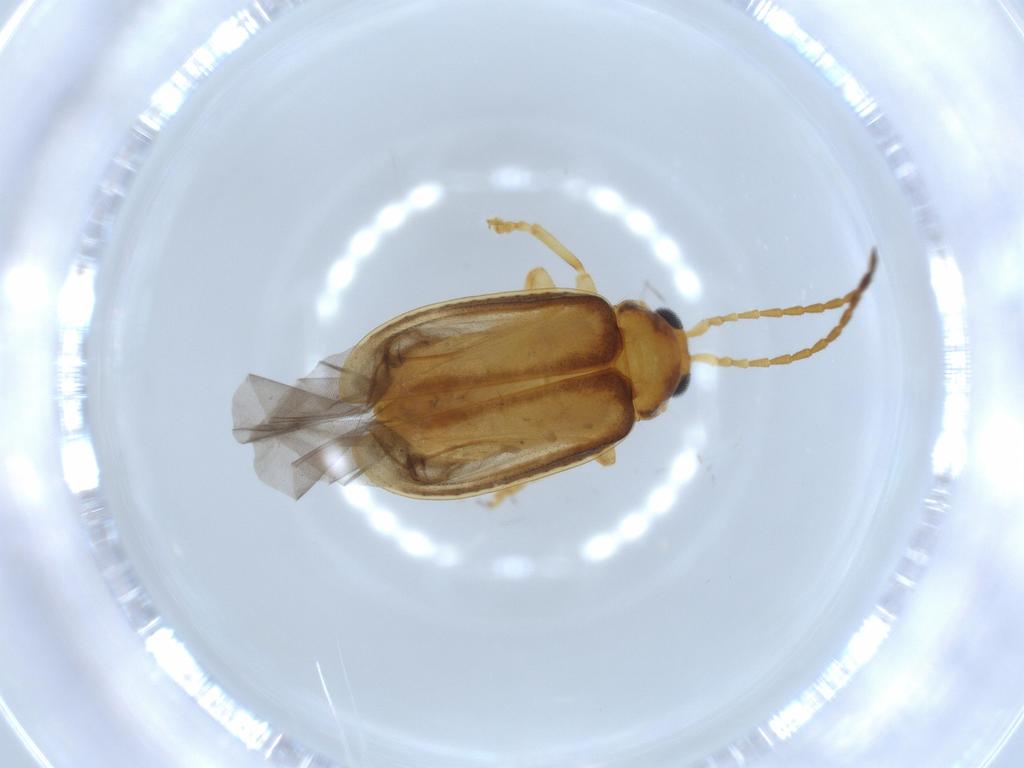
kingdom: Animalia
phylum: Arthropoda
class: Insecta
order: Coleoptera
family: Chrysomelidae
